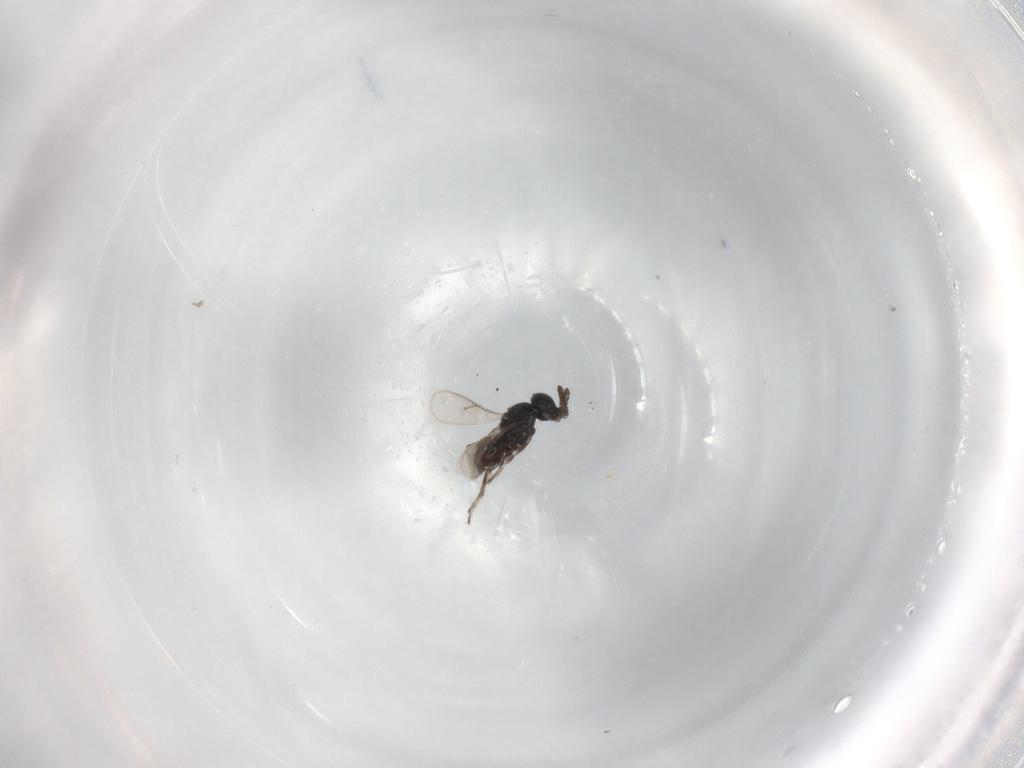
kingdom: Animalia
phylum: Arthropoda
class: Insecta
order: Hymenoptera
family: Scelionidae
